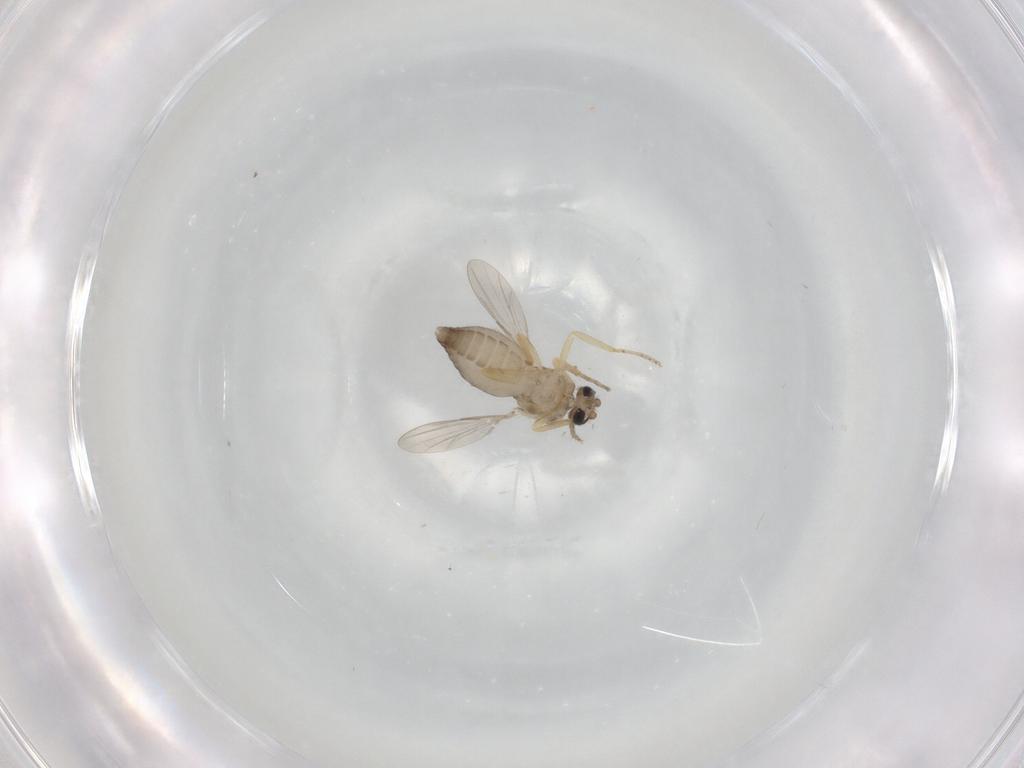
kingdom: Animalia
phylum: Arthropoda
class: Insecta
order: Diptera
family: Ceratopogonidae
